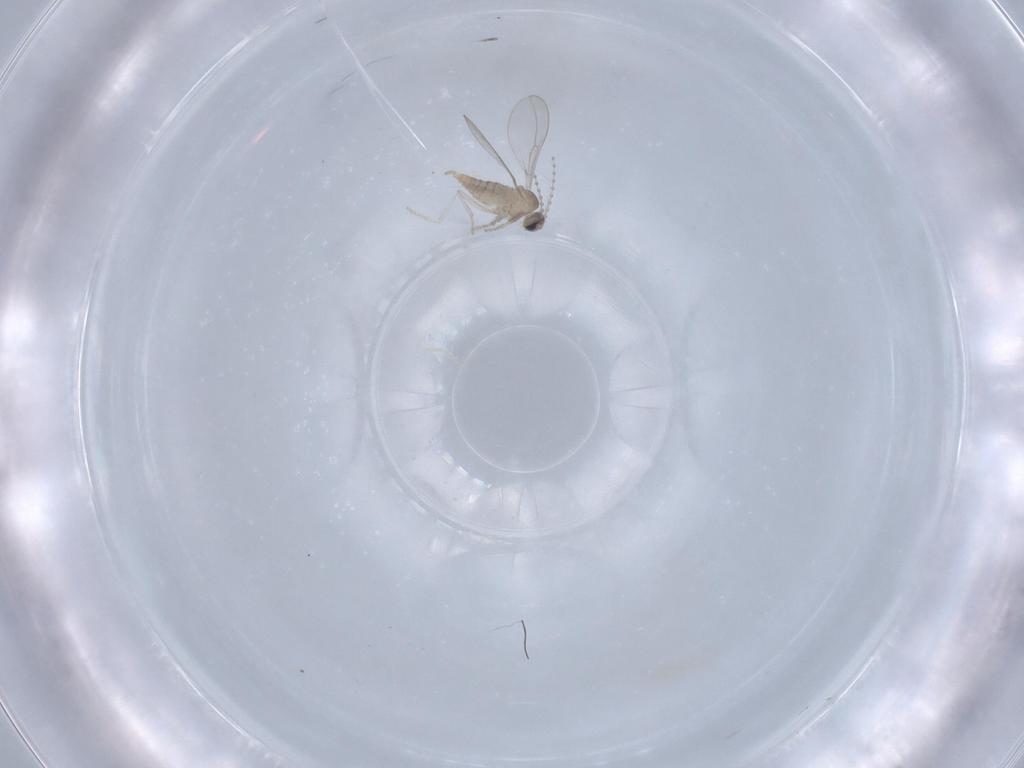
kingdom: Animalia
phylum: Arthropoda
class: Insecta
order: Diptera
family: Cecidomyiidae
